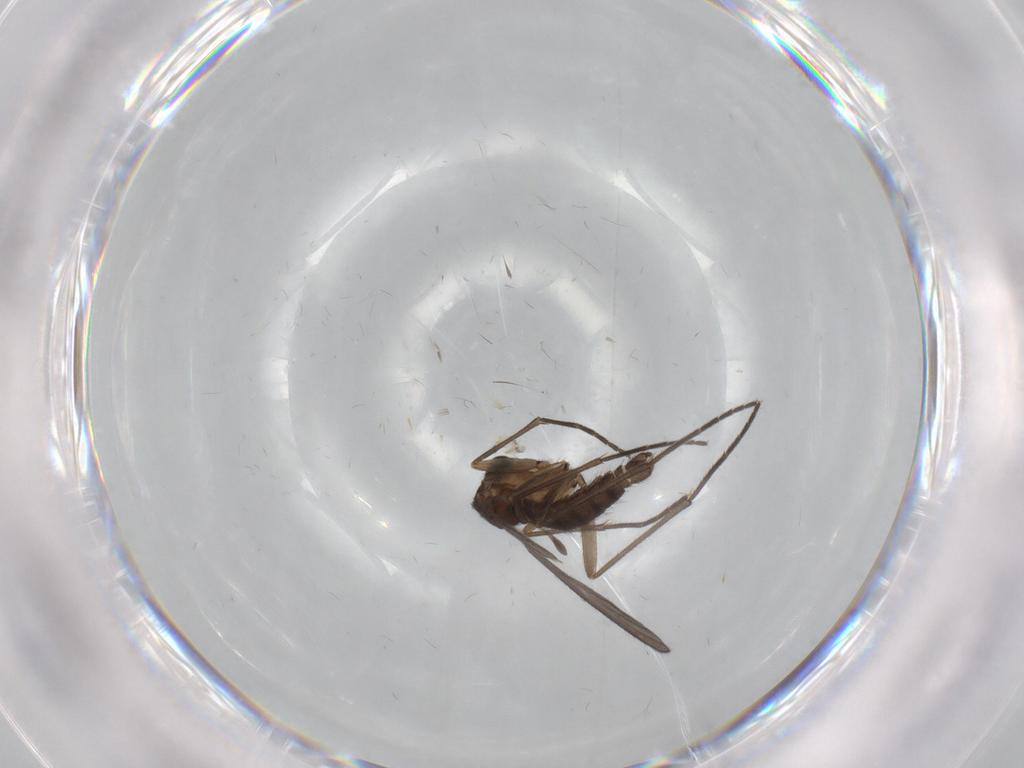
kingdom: Animalia
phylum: Arthropoda
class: Insecta
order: Diptera
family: Cecidomyiidae
